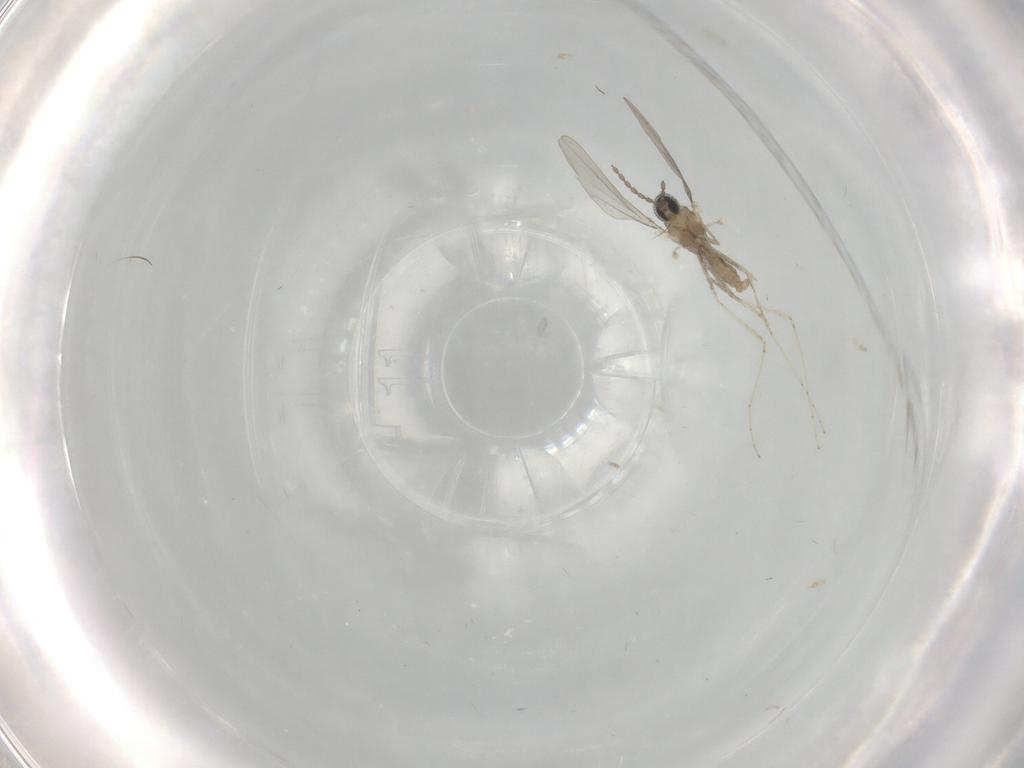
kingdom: Animalia
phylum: Arthropoda
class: Insecta
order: Diptera
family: Cecidomyiidae
